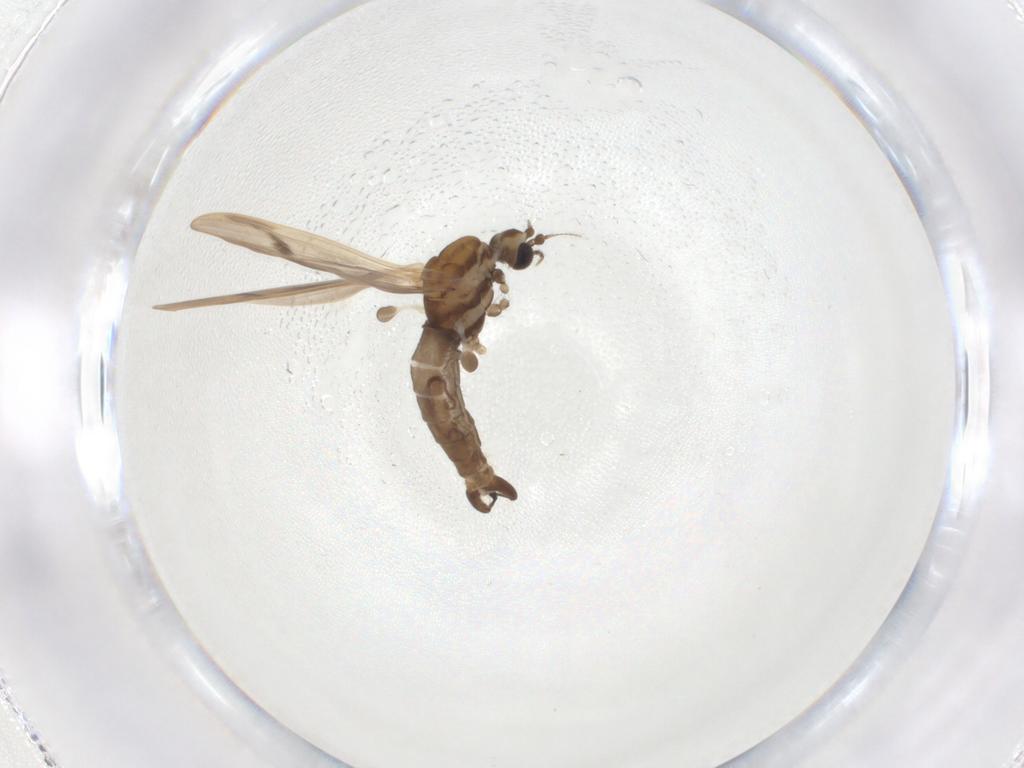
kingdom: Animalia
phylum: Arthropoda
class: Insecta
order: Diptera
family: Limoniidae
